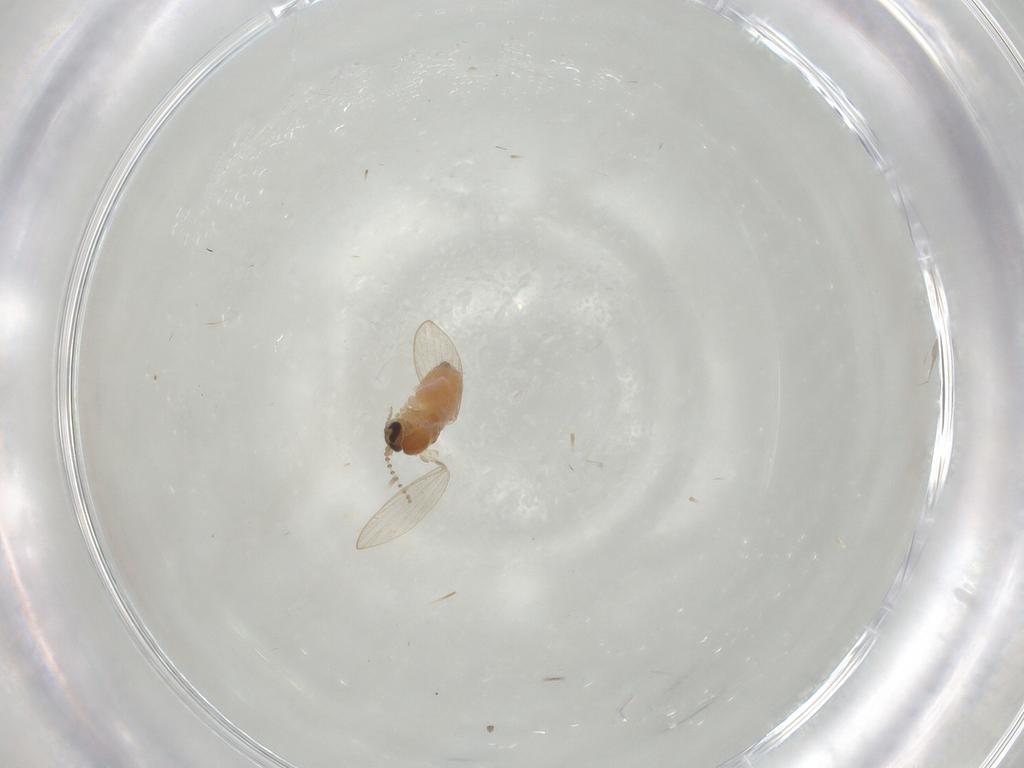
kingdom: Animalia
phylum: Arthropoda
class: Insecta
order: Diptera
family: Psychodidae
